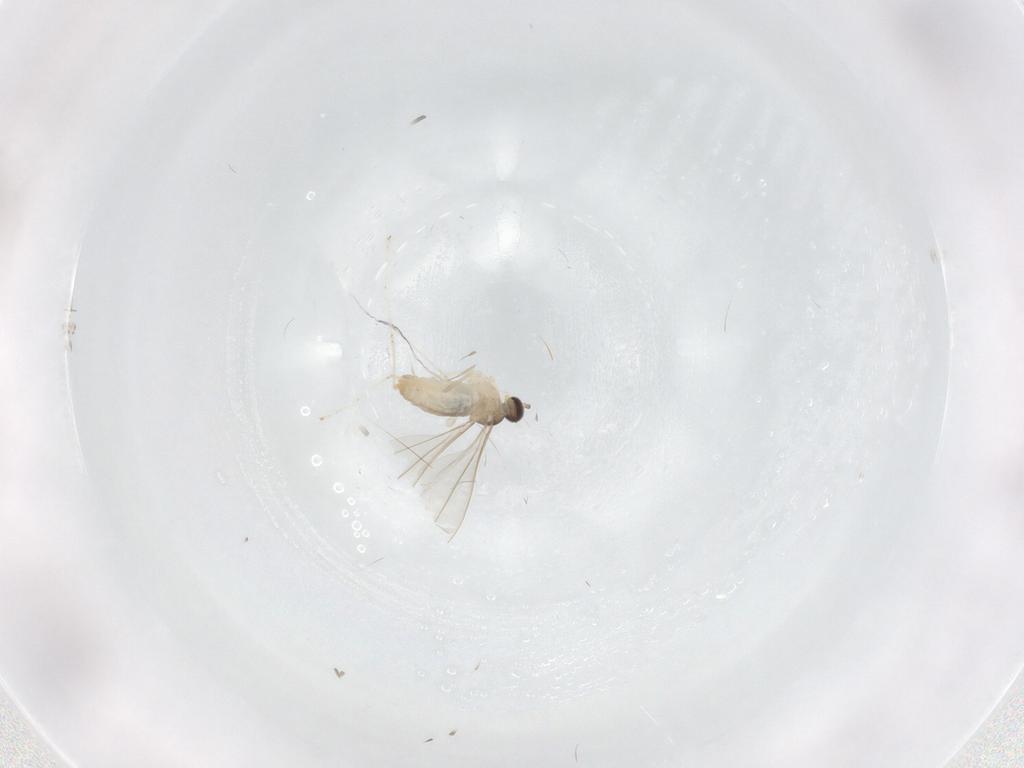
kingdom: Animalia
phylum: Arthropoda
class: Insecta
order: Diptera
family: Cecidomyiidae
